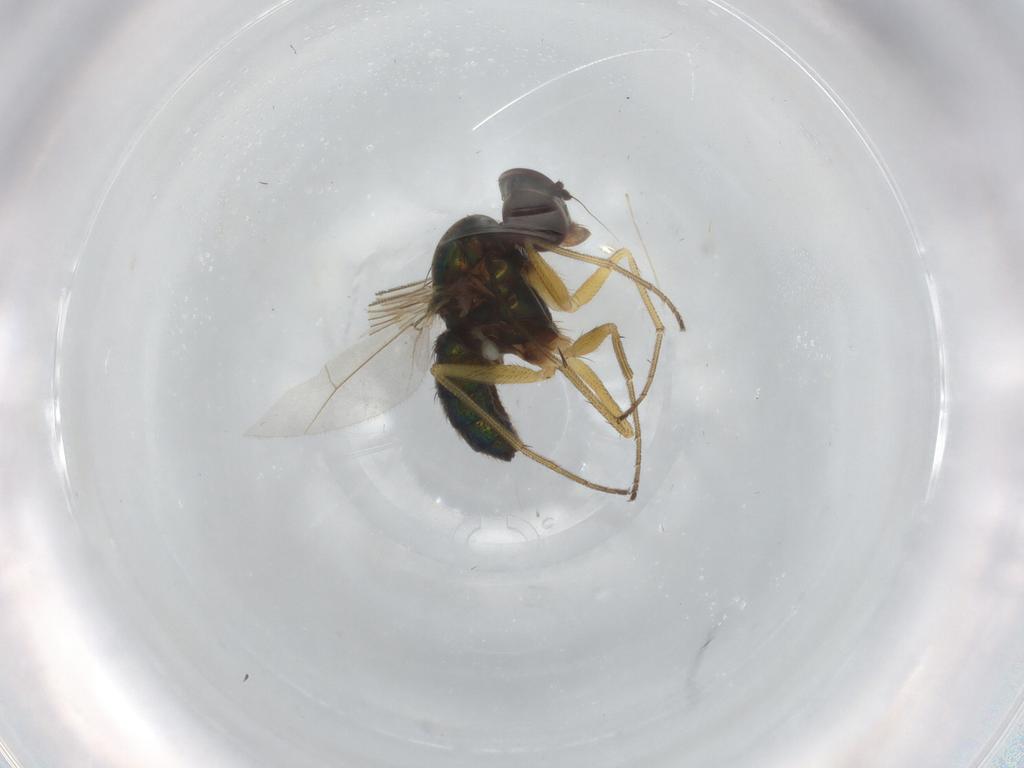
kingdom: Animalia
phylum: Arthropoda
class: Insecta
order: Diptera
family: Dolichopodidae
